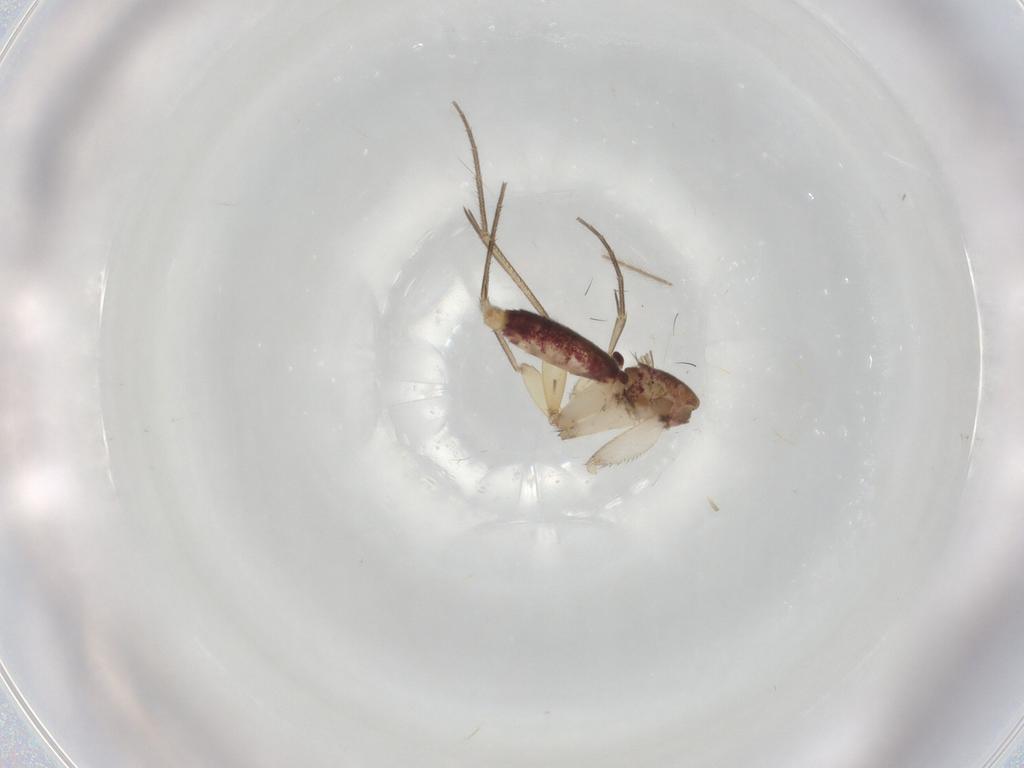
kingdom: Animalia
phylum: Arthropoda
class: Insecta
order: Diptera
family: Mycetophilidae
